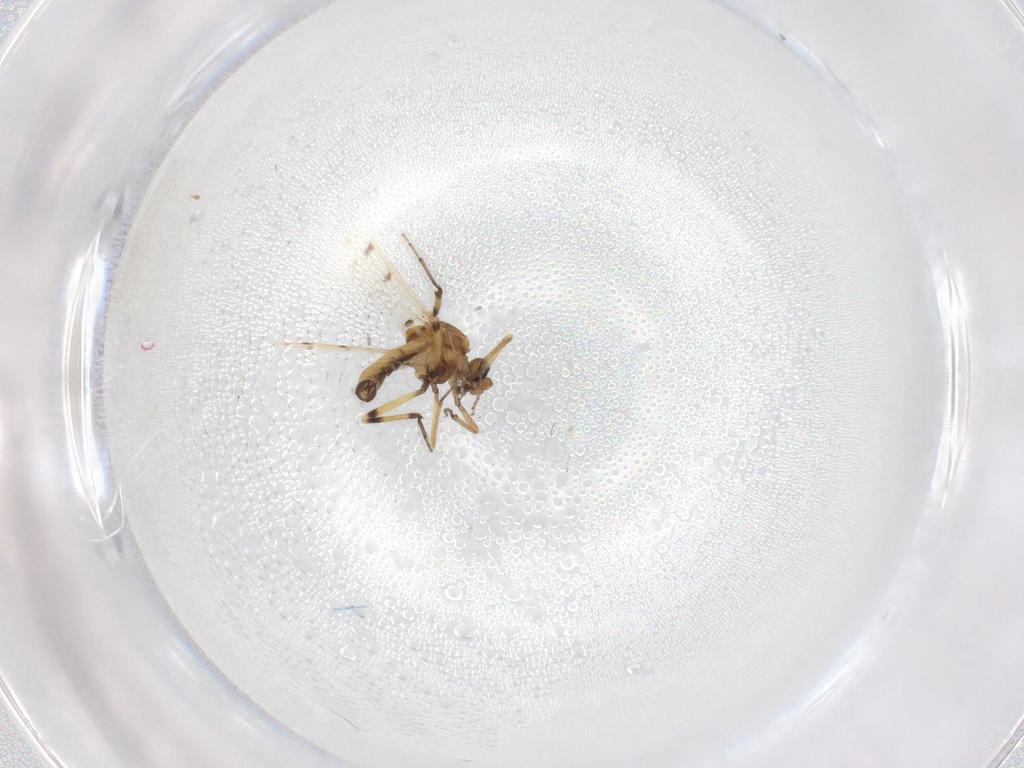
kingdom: Animalia
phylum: Arthropoda
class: Insecta
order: Diptera
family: Ceratopogonidae
